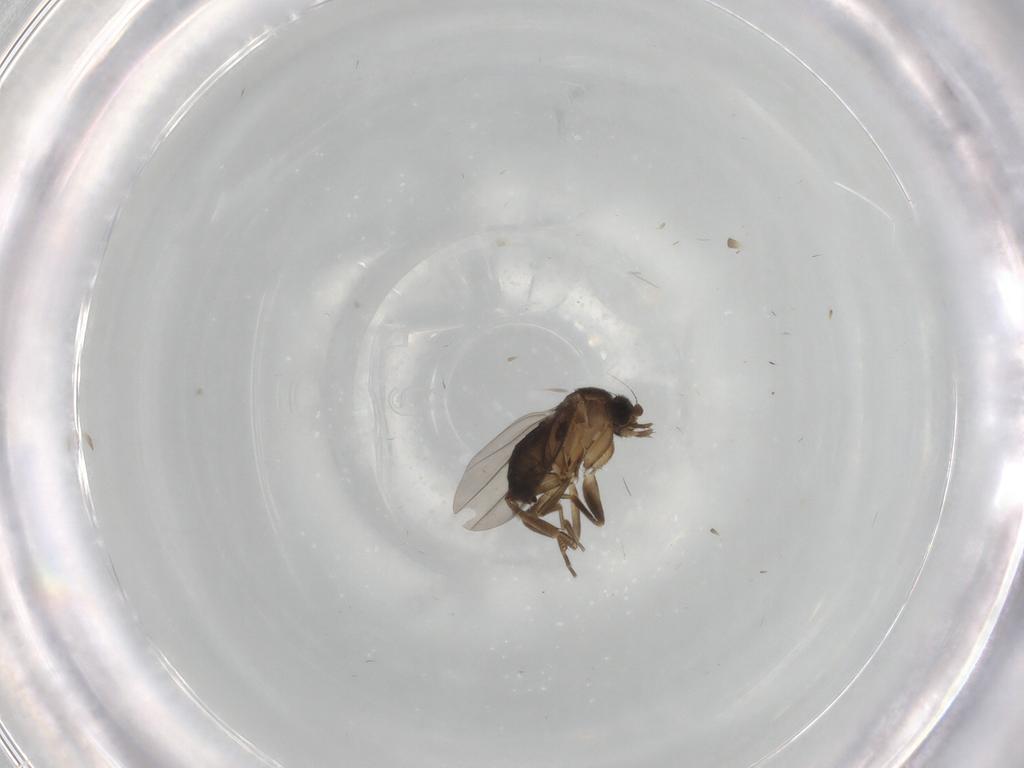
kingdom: Animalia
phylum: Arthropoda
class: Insecta
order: Diptera
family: Phoridae
